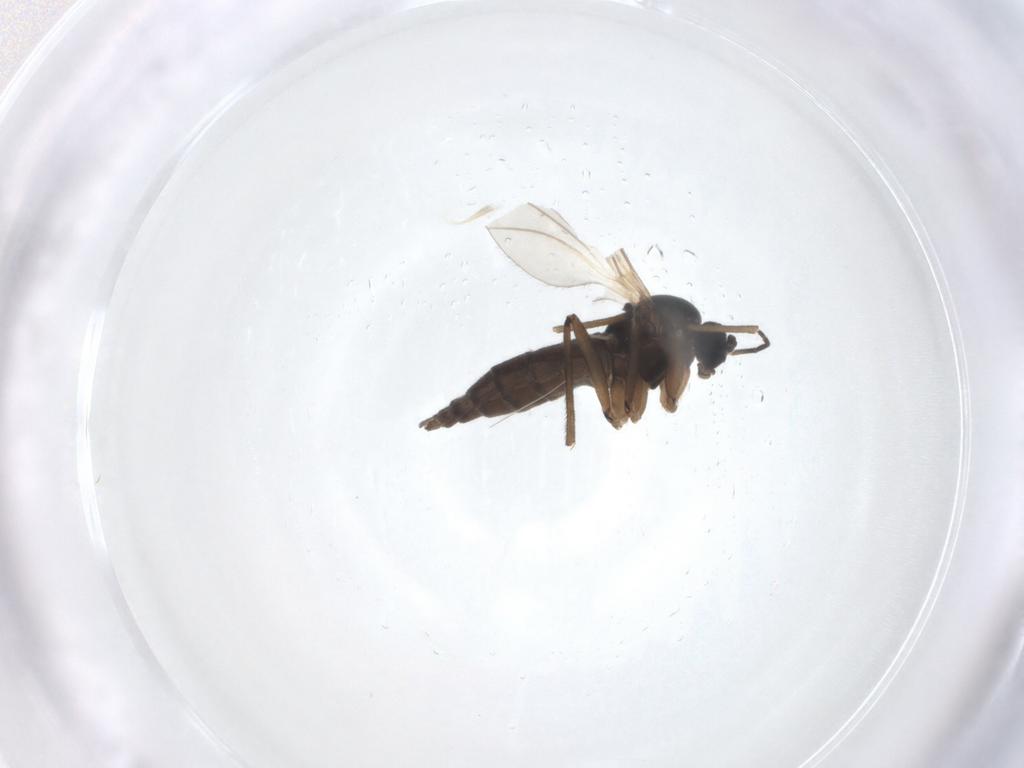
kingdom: Animalia
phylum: Arthropoda
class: Insecta
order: Diptera
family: Sciaridae
